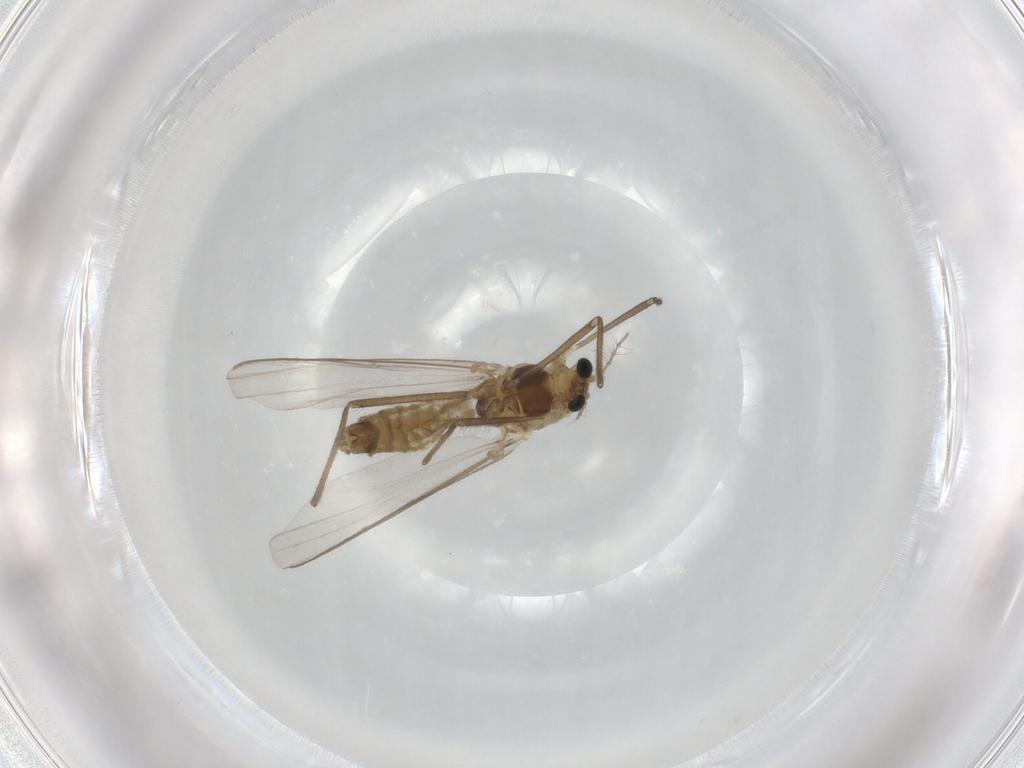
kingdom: Animalia
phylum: Arthropoda
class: Insecta
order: Diptera
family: Chironomidae
